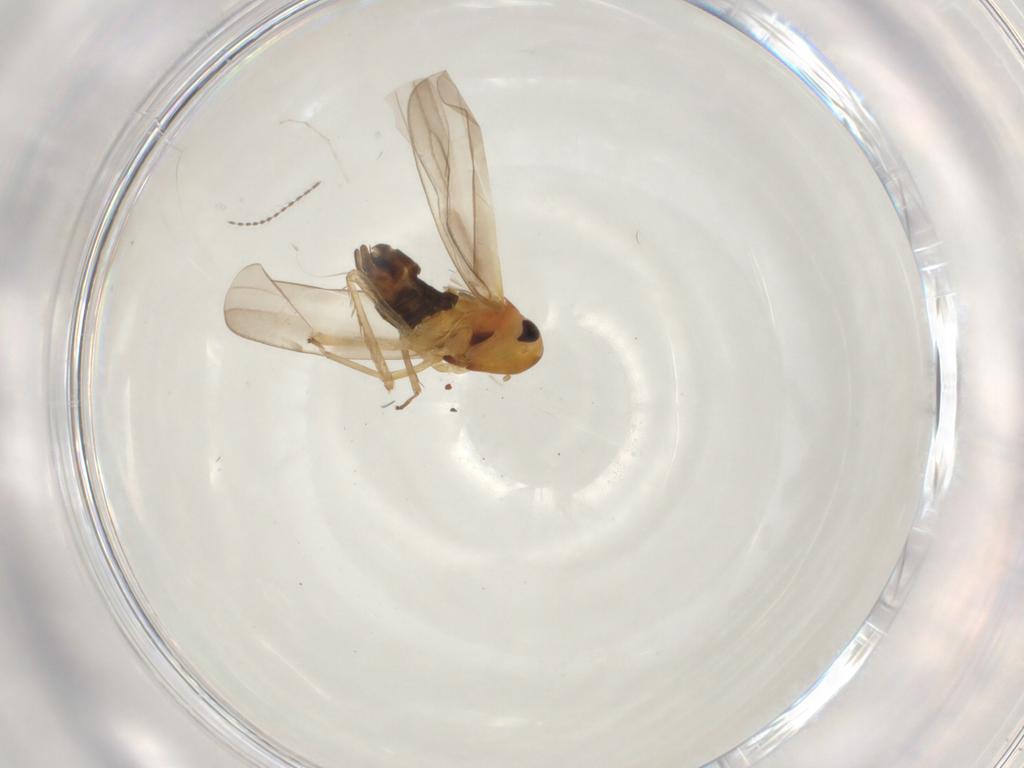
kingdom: Animalia
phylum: Arthropoda
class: Insecta
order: Hemiptera
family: Cicadellidae
